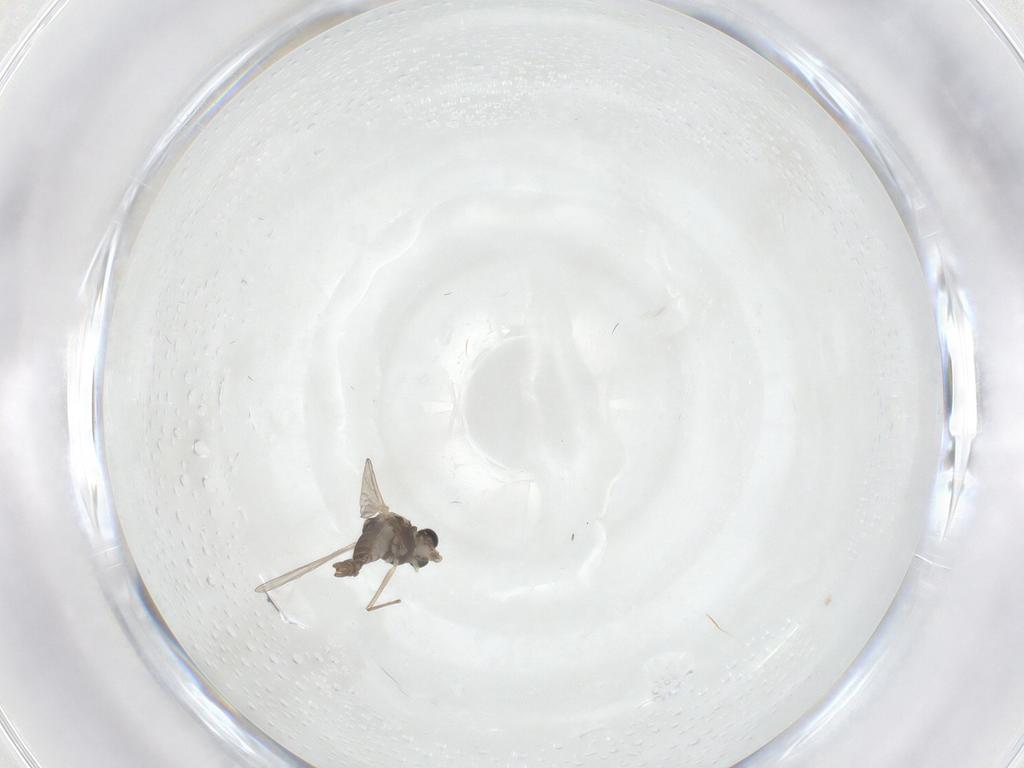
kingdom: Animalia
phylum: Arthropoda
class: Insecta
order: Diptera
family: Chironomidae
